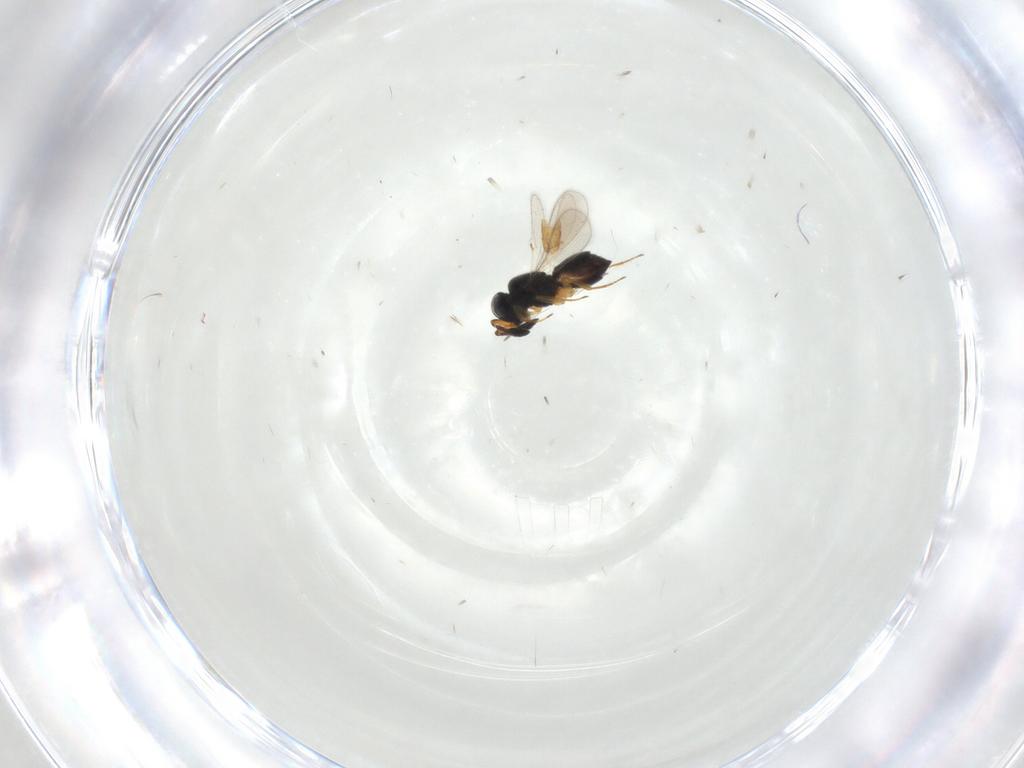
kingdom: Animalia
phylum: Arthropoda
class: Insecta
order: Hymenoptera
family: Scelionidae
